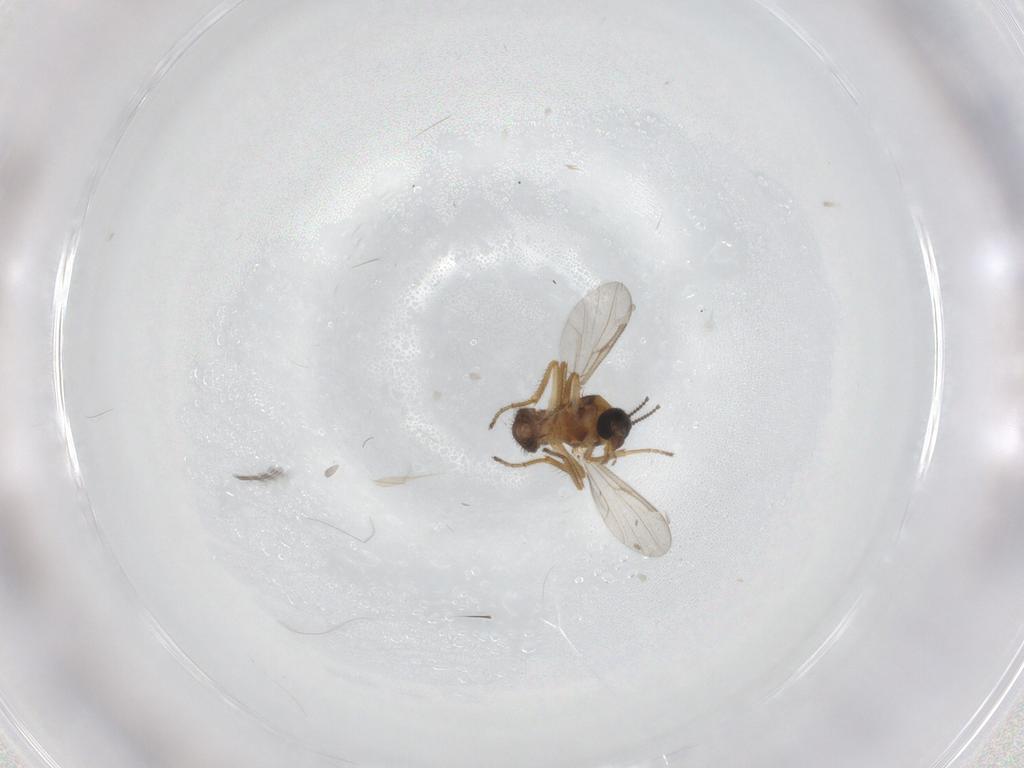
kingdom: Animalia
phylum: Arthropoda
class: Insecta
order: Diptera
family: Ceratopogonidae
